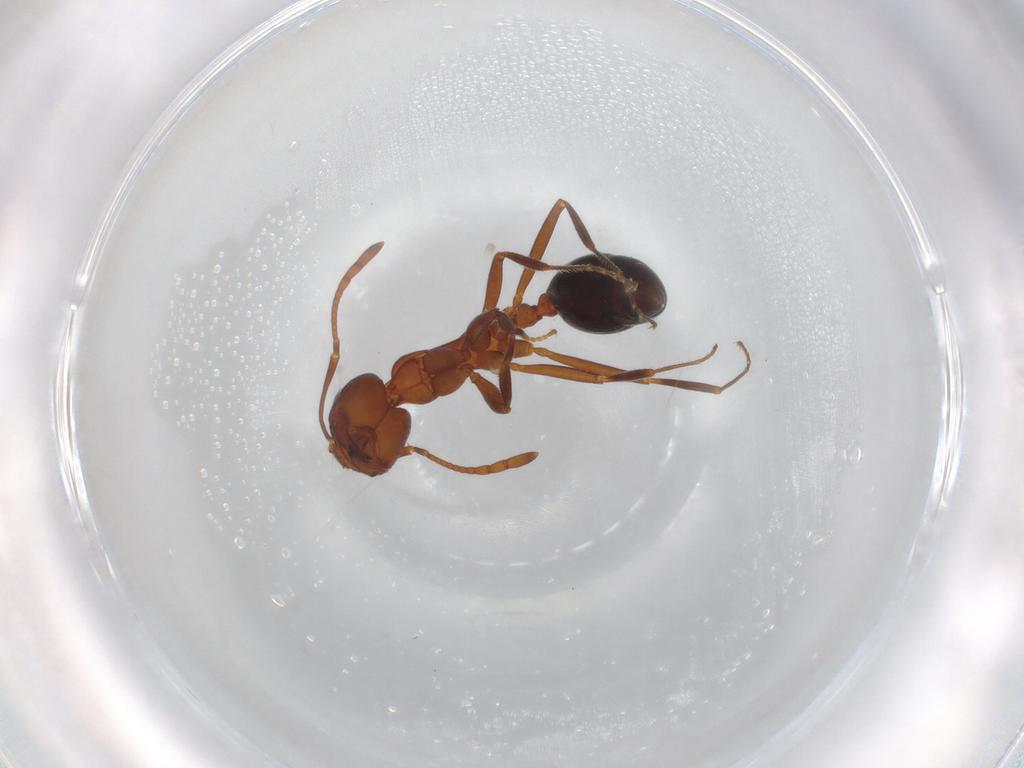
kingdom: Animalia
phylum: Arthropoda
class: Insecta
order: Hymenoptera
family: Formicidae
